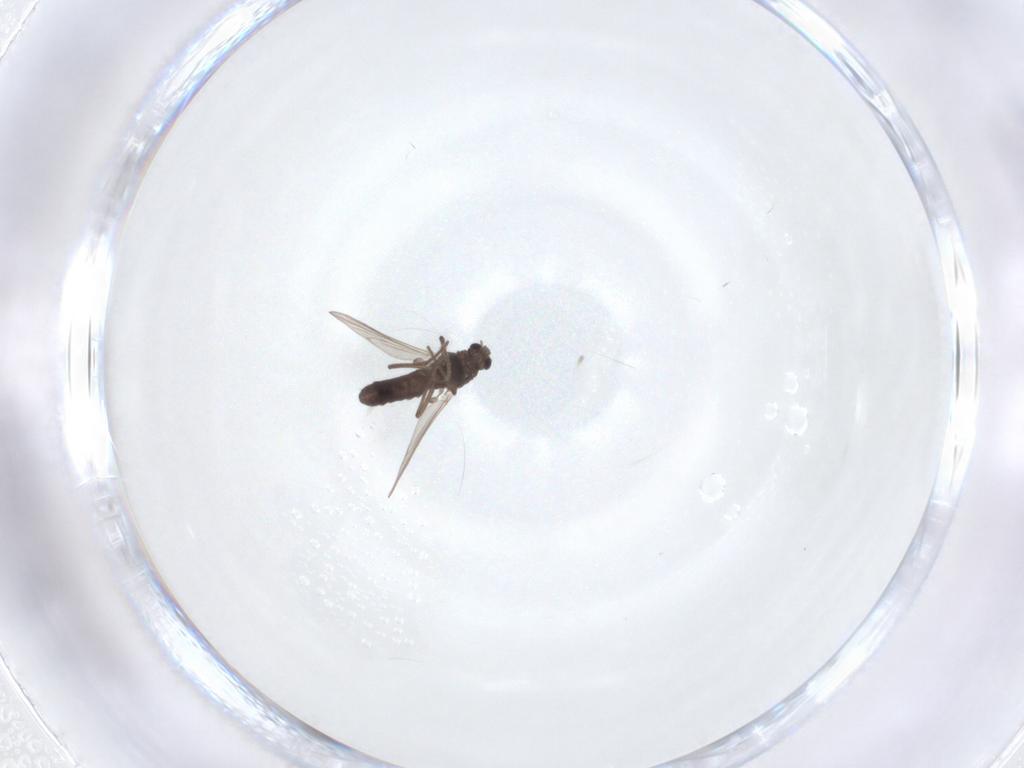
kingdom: Animalia
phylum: Arthropoda
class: Insecta
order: Diptera
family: Chironomidae
